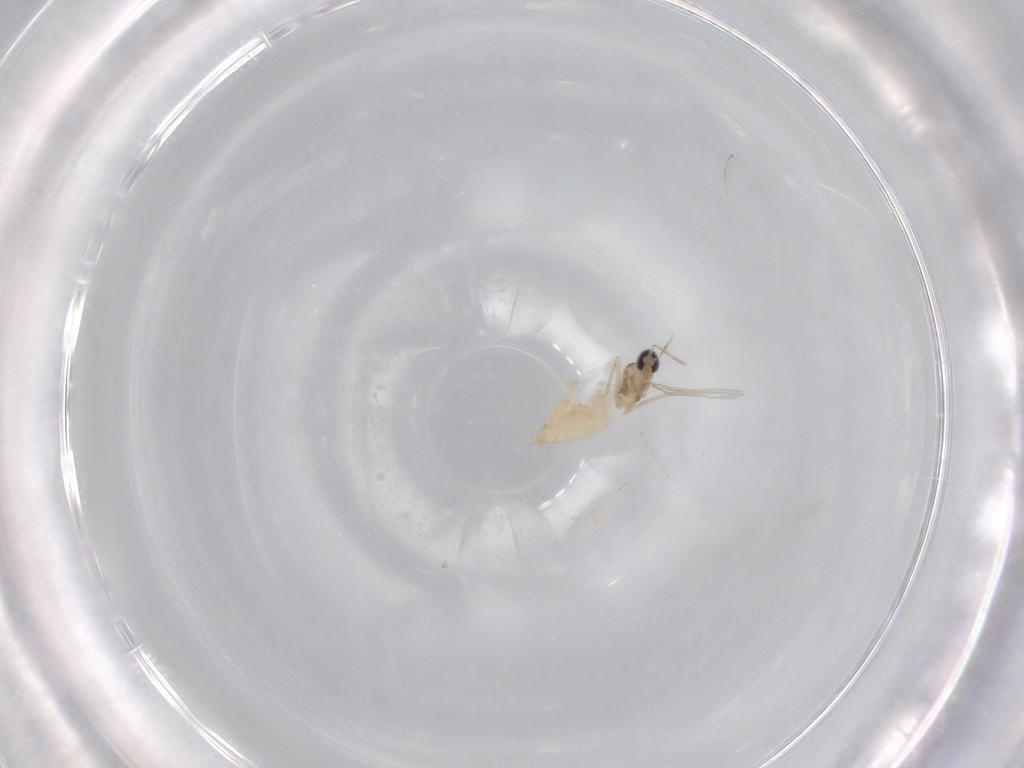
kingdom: Animalia
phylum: Arthropoda
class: Insecta
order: Diptera
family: Cecidomyiidae
